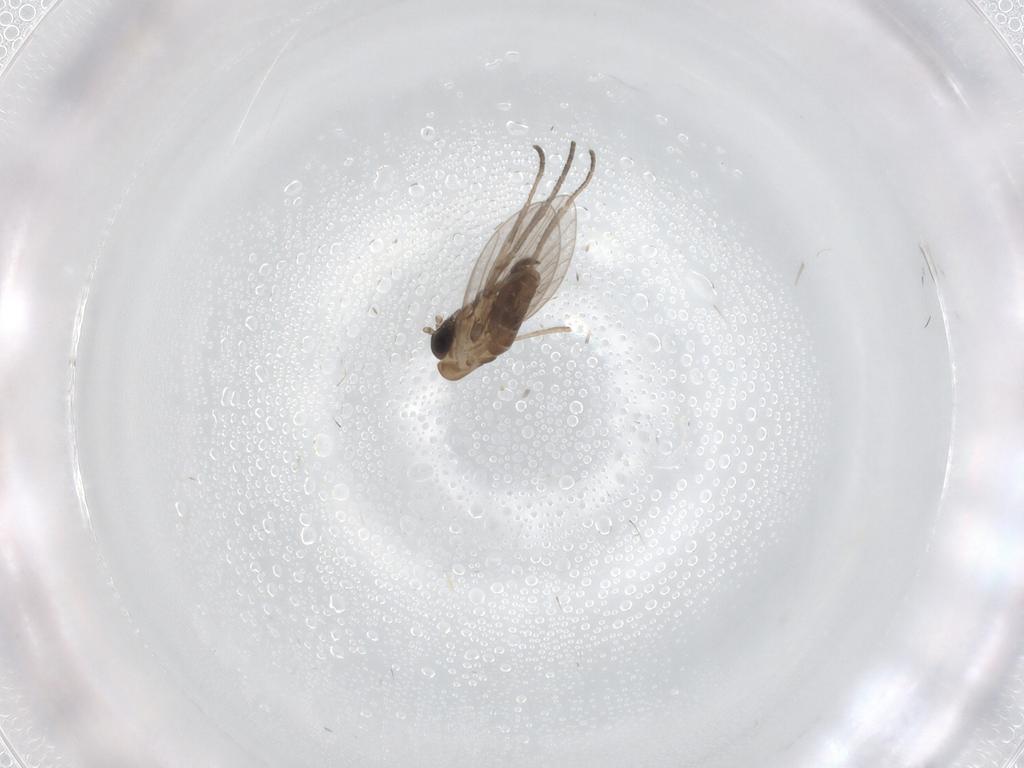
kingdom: Animalia
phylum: Arthropoda
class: Insecta
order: Diptera
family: Psychodidae
